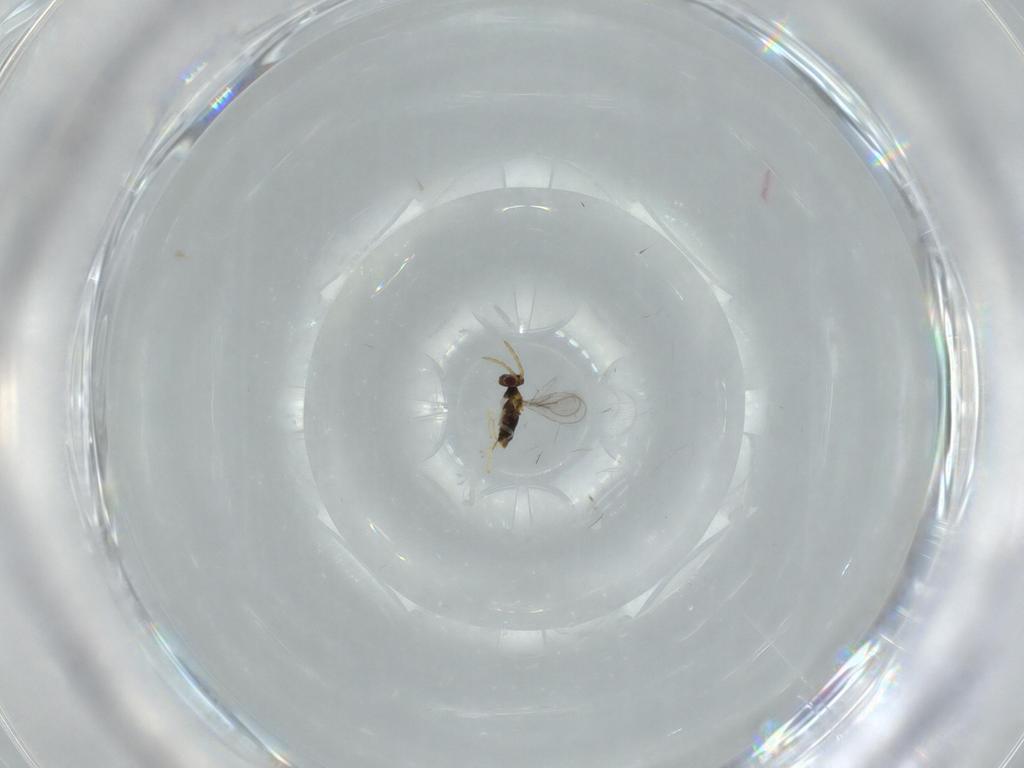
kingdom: Animalia
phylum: Arthropoda
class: Insecta
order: Hymenoptera
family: Aphelinidae
